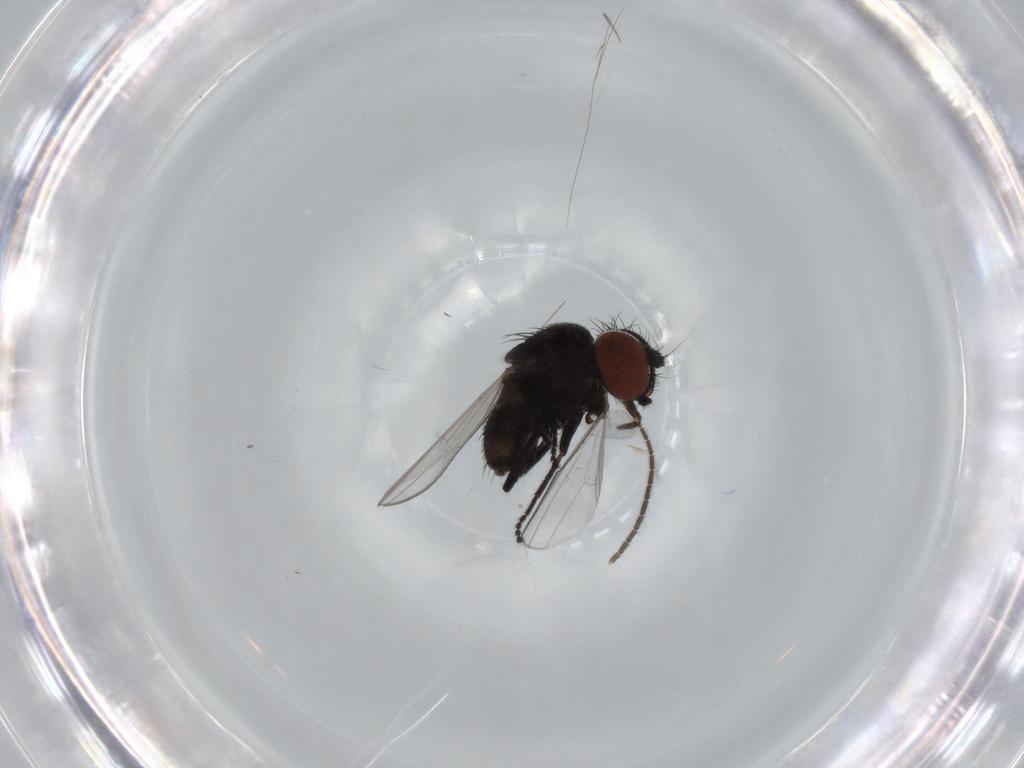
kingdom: Animalia
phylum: Arthropoda
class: Insecta
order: Diptera
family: Sciaridae
